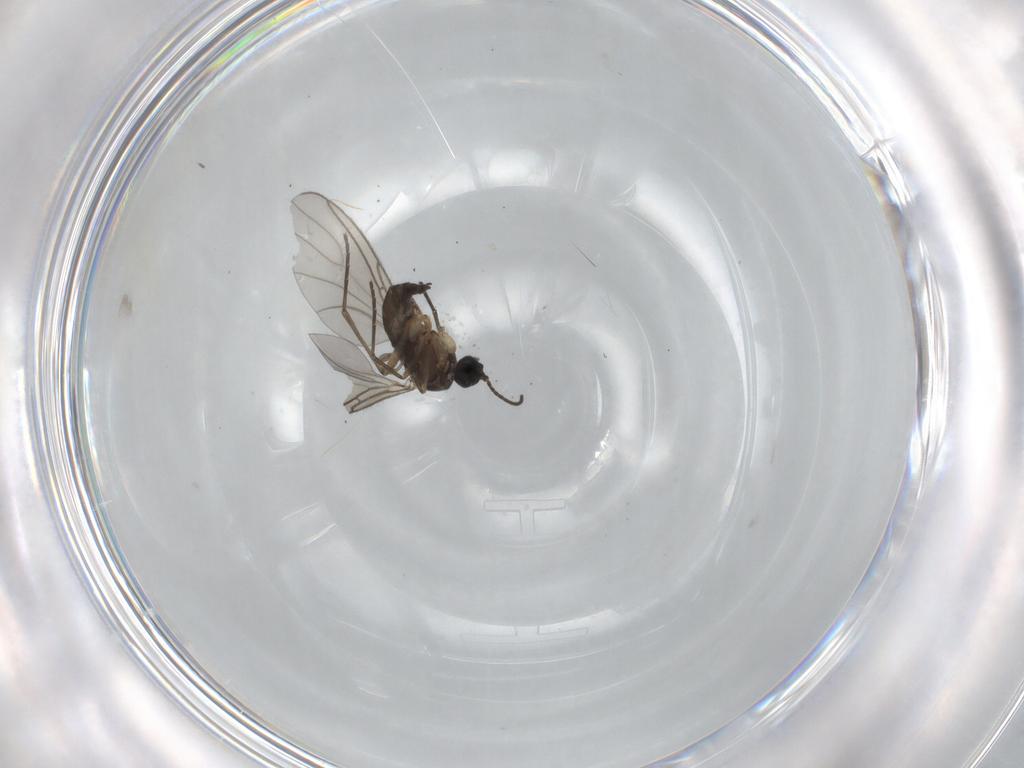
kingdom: Animalia
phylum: Arthropoda
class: Insecta
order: Diptera
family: Sciaridae
